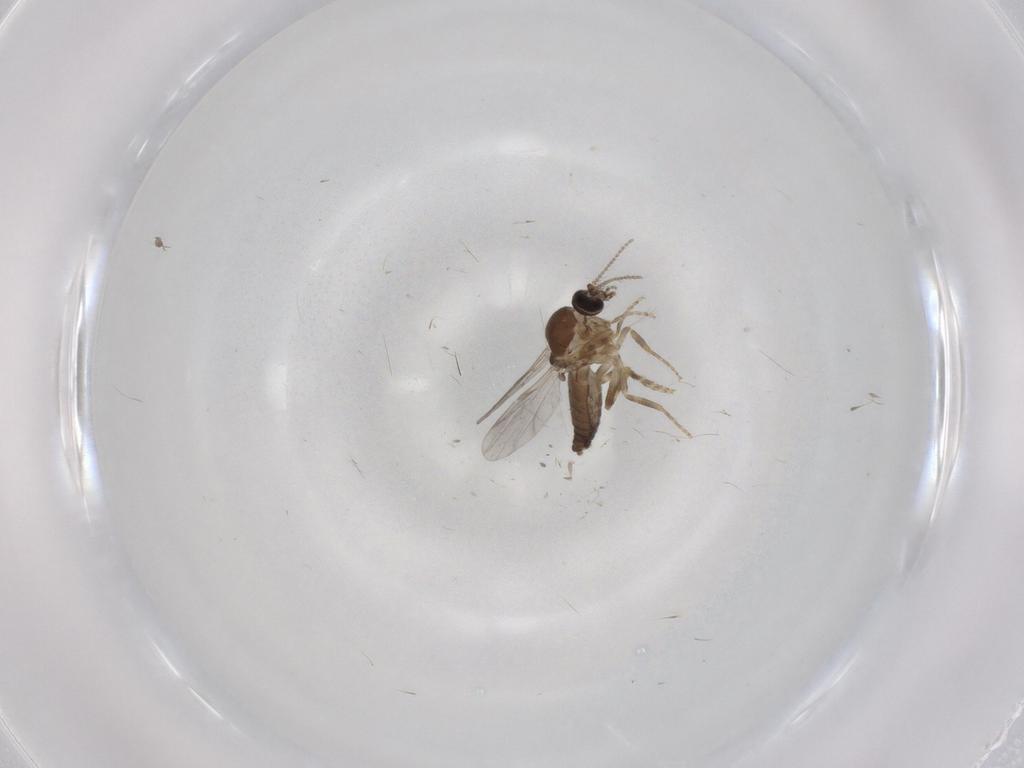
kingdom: Animalia
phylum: Arthropoda
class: Insecta
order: Diptera
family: Ceratopogonidae
